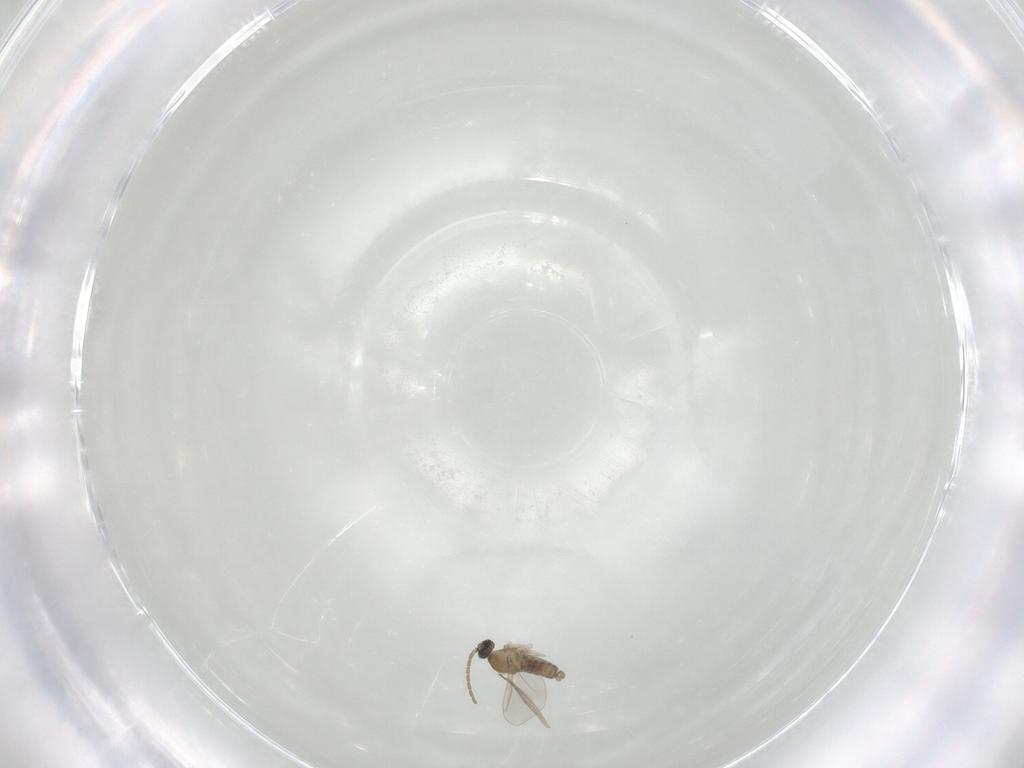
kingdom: Animalia
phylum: Arthropoda
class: Insecta
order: Diptera
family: Cecidomyiidae
